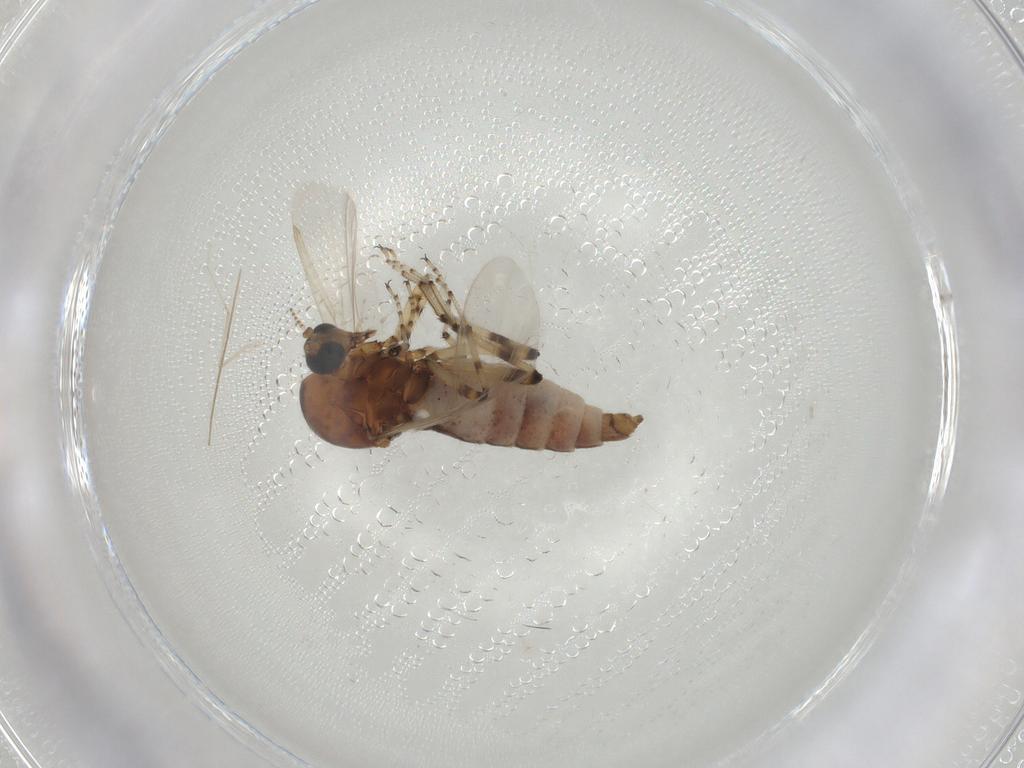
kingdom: Animalia
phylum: Arthropoda
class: Insecta
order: Diptera
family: Ceratopogonidae
